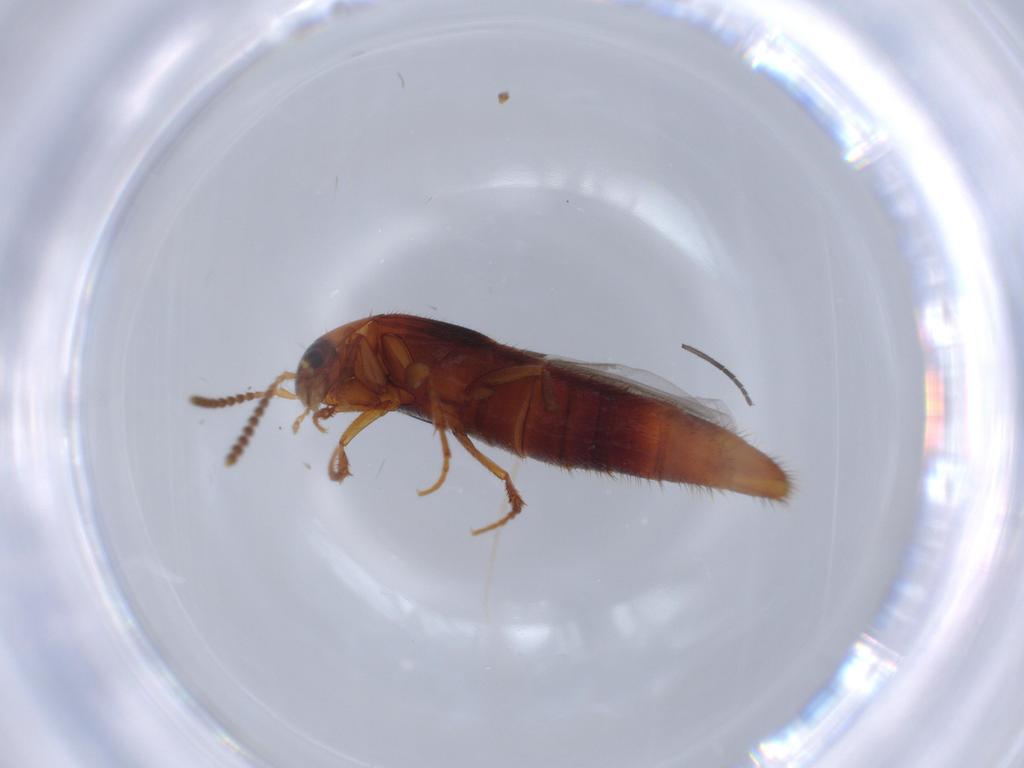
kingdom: Animalia
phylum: Arthropoda
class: Insecta
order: Coleoptera
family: Staphylinidae
